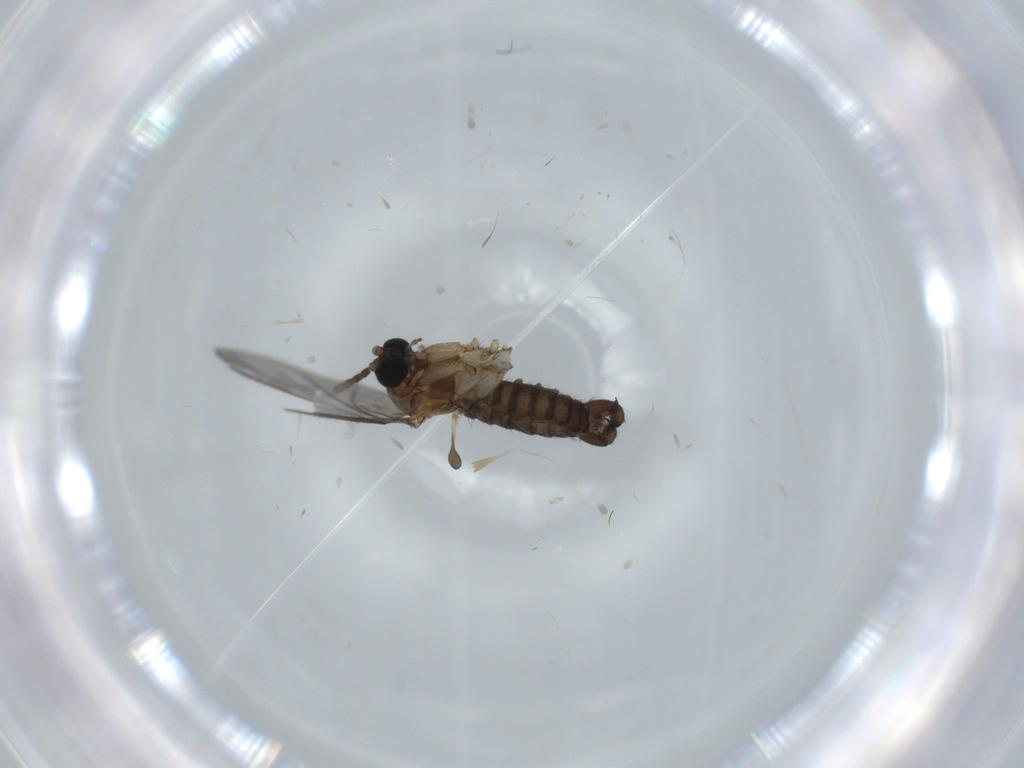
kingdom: Animalia
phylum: Arthropoda
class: Insecta
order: Diptera
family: Sciaridae
